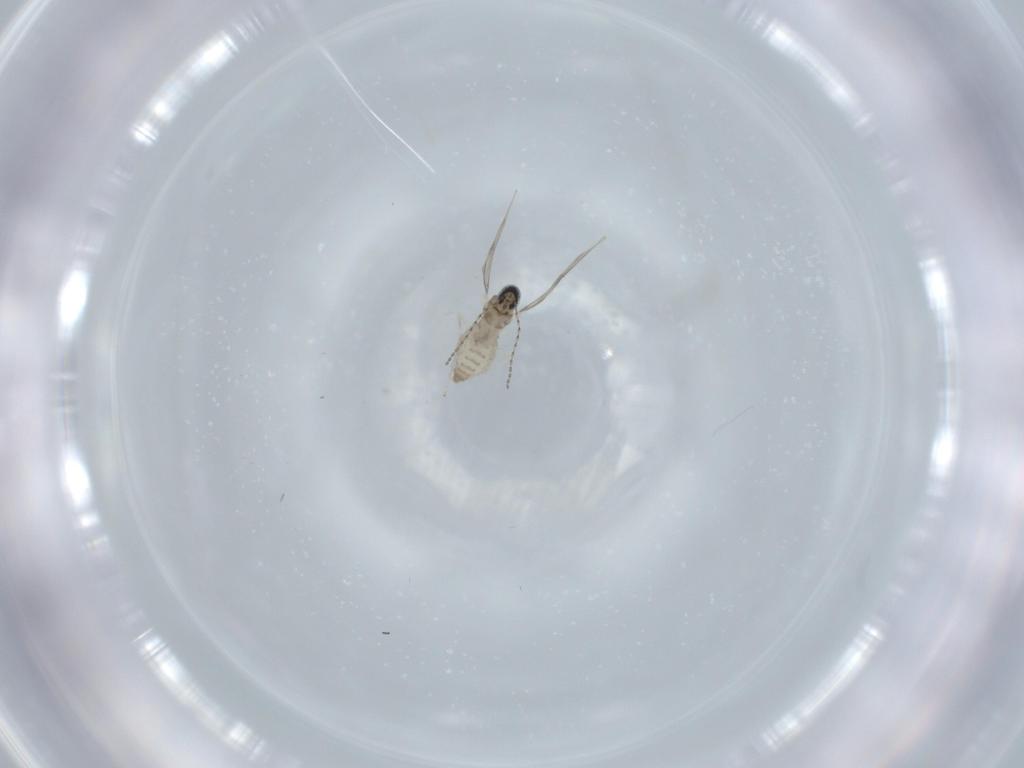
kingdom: Animalia
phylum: Arthropoda
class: Insecta
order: Diptera
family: Cecidomyiidae
